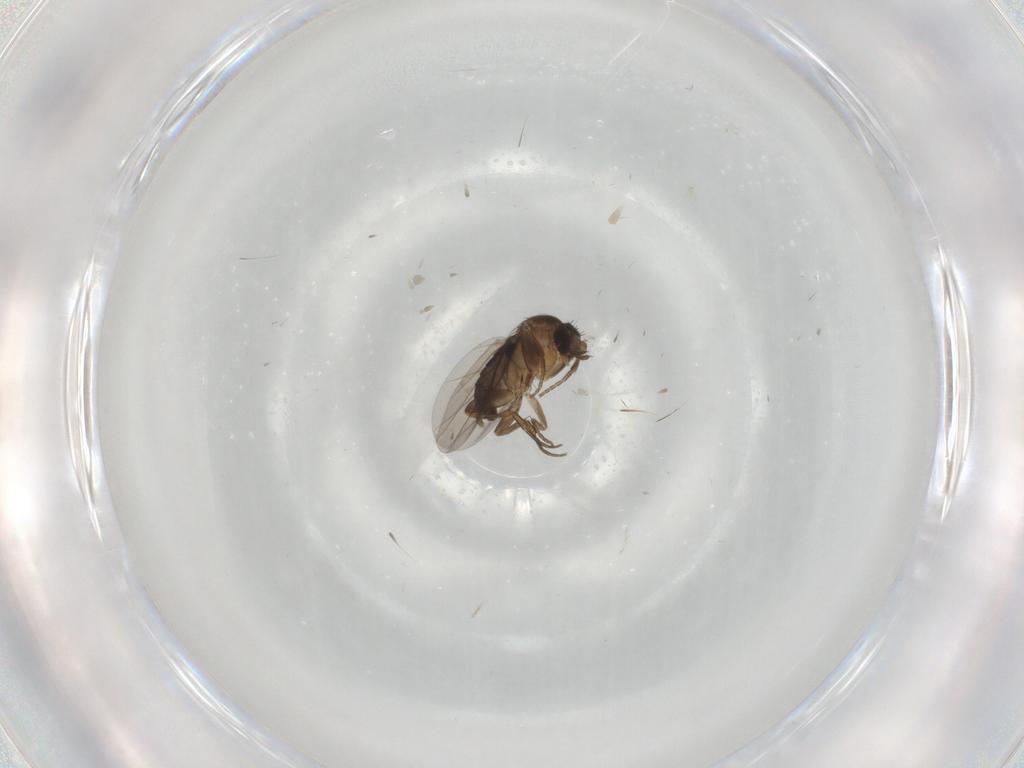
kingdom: Animalia
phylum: Arthropoda
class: Insecta
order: Diptera
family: Phoridae
